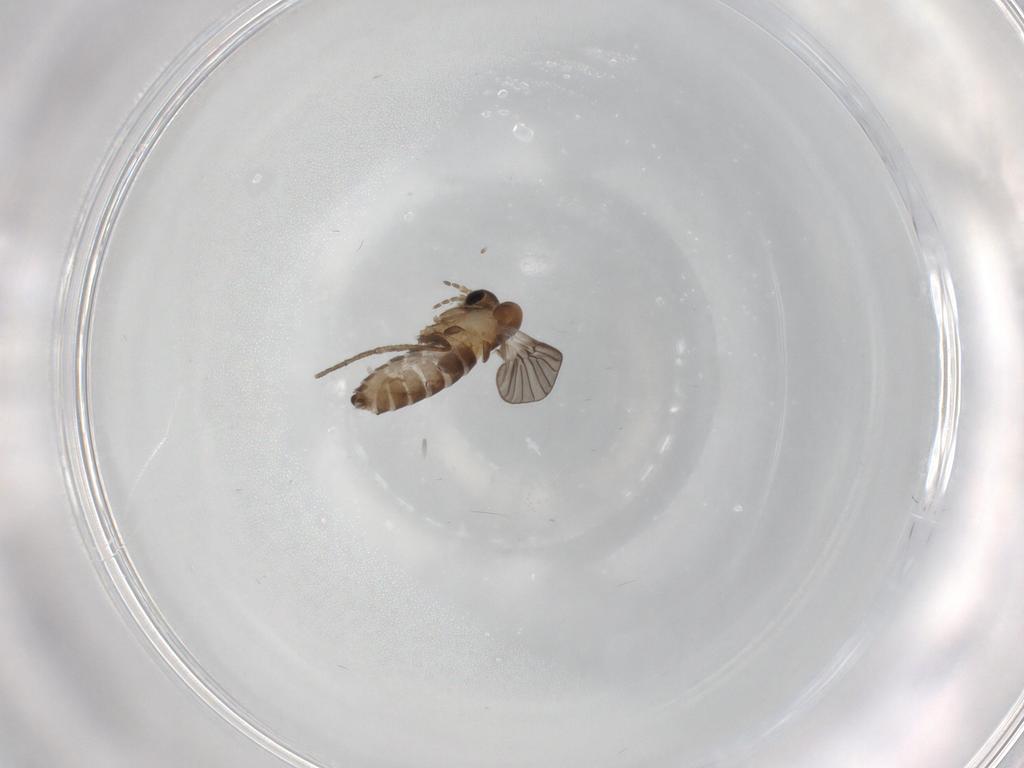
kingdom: Animalia
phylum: Arthropoda
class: Insecta
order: Diptera
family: Psychodidae
